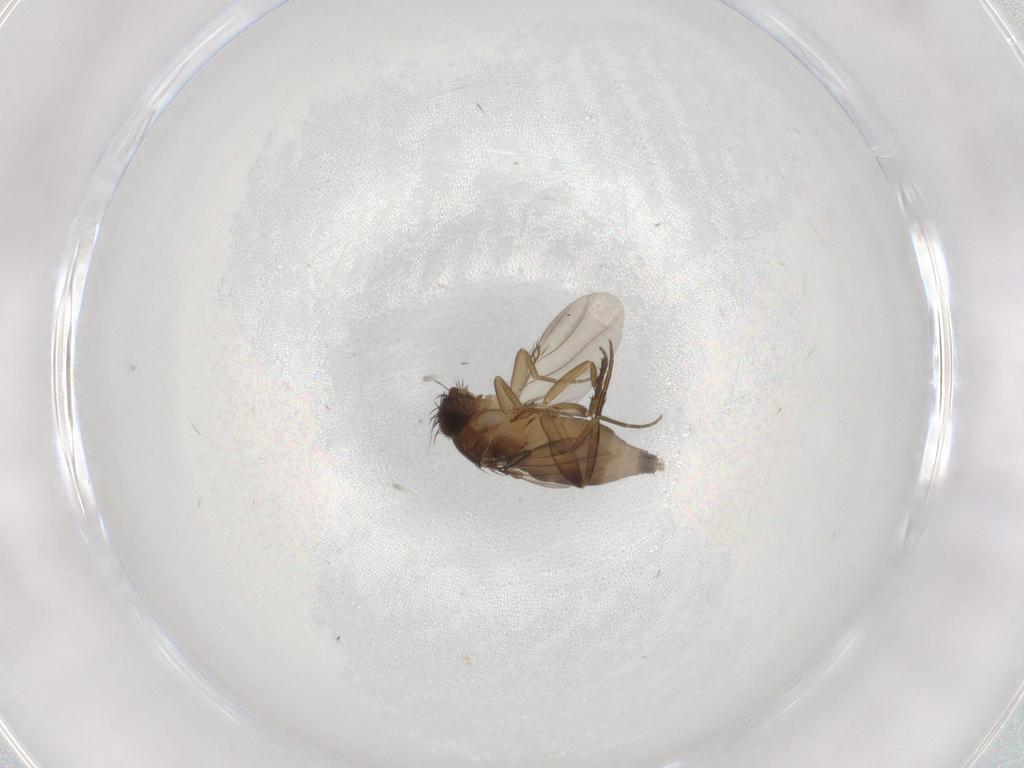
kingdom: Animalia
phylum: Arthropoda
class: Insecta
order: Diptera
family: Phoridae
